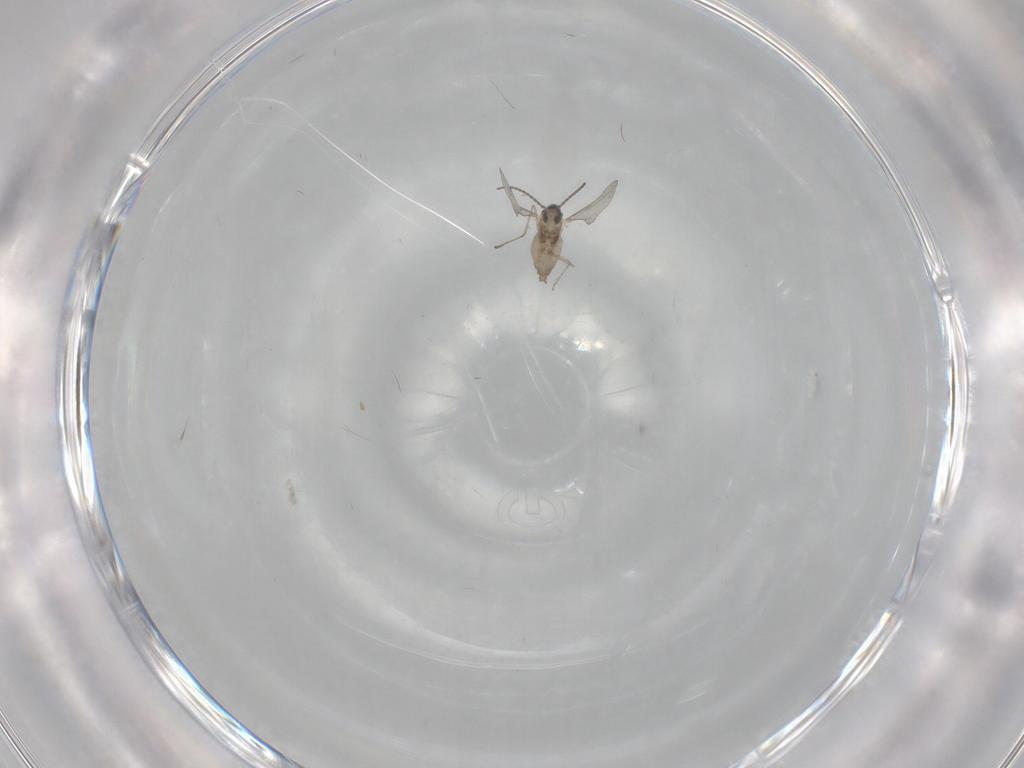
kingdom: Animalia
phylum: Arthropoda
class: Insecta
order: Diptera
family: Cecidomyiidae
